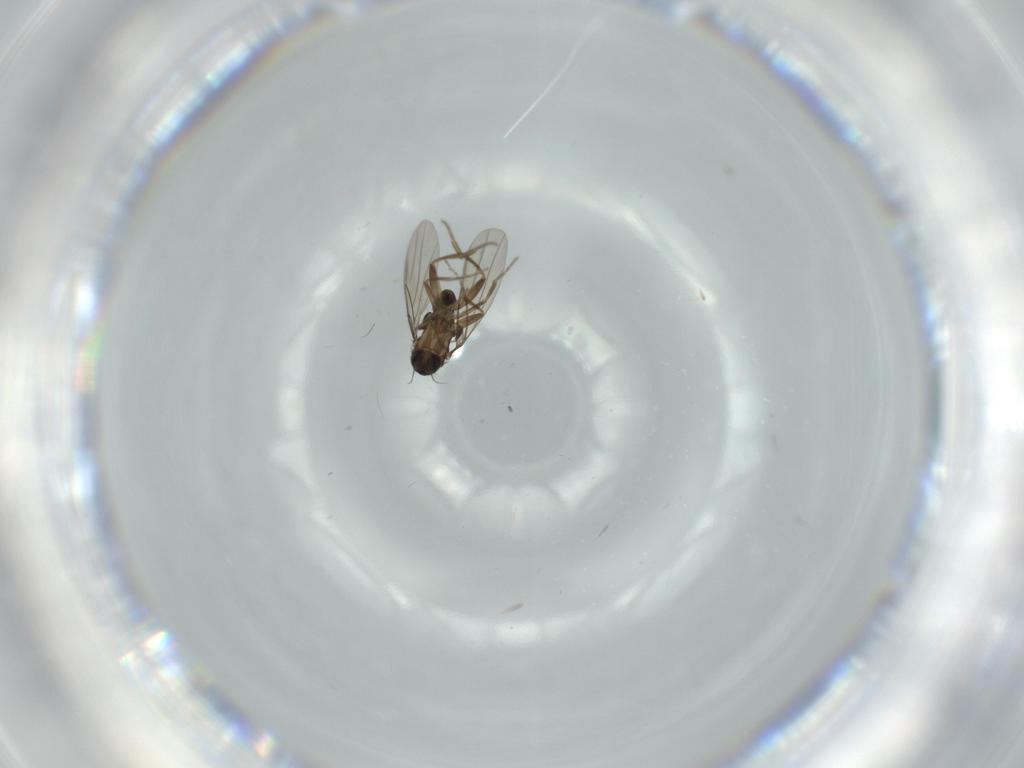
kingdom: Animalia
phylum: Arthropoda
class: Insecta
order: Diptera
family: Phoridae
